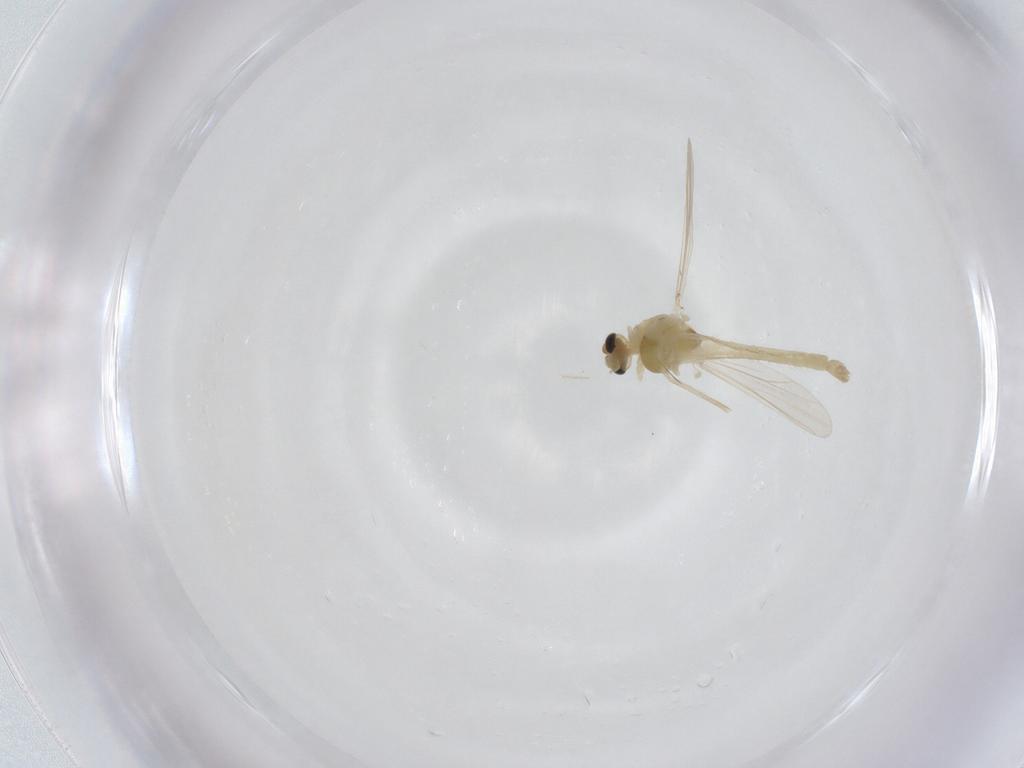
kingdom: Animalia
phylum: Arthropoda
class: Insecta
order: Diptera
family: Chironomidae
